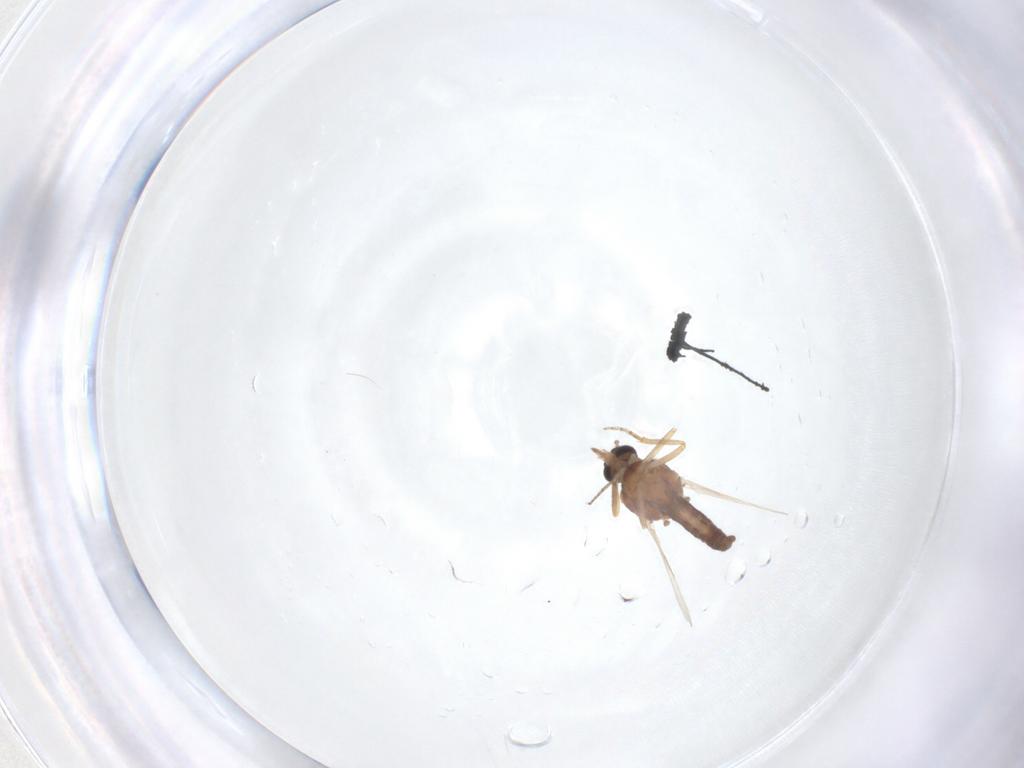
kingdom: Animalia
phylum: Arthropoda
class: Insecta
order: Diptera
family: Ceratopogonidae
